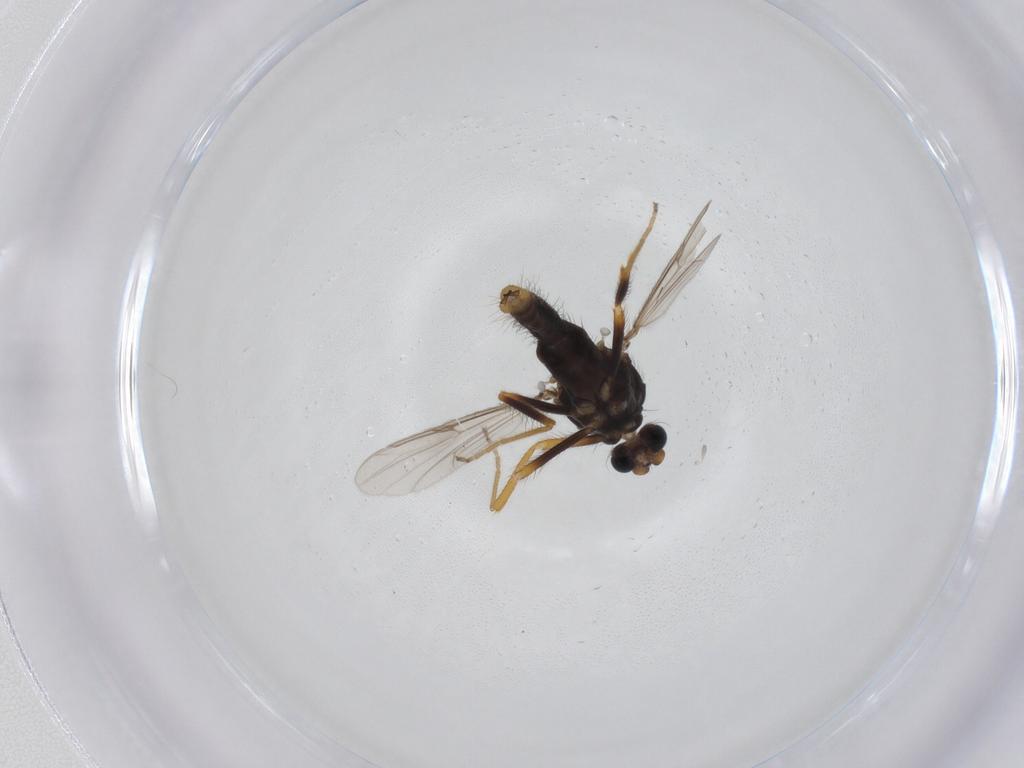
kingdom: Animalia
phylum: Arthropoda
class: Insecta
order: Diptera
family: Ceratopogonidae
